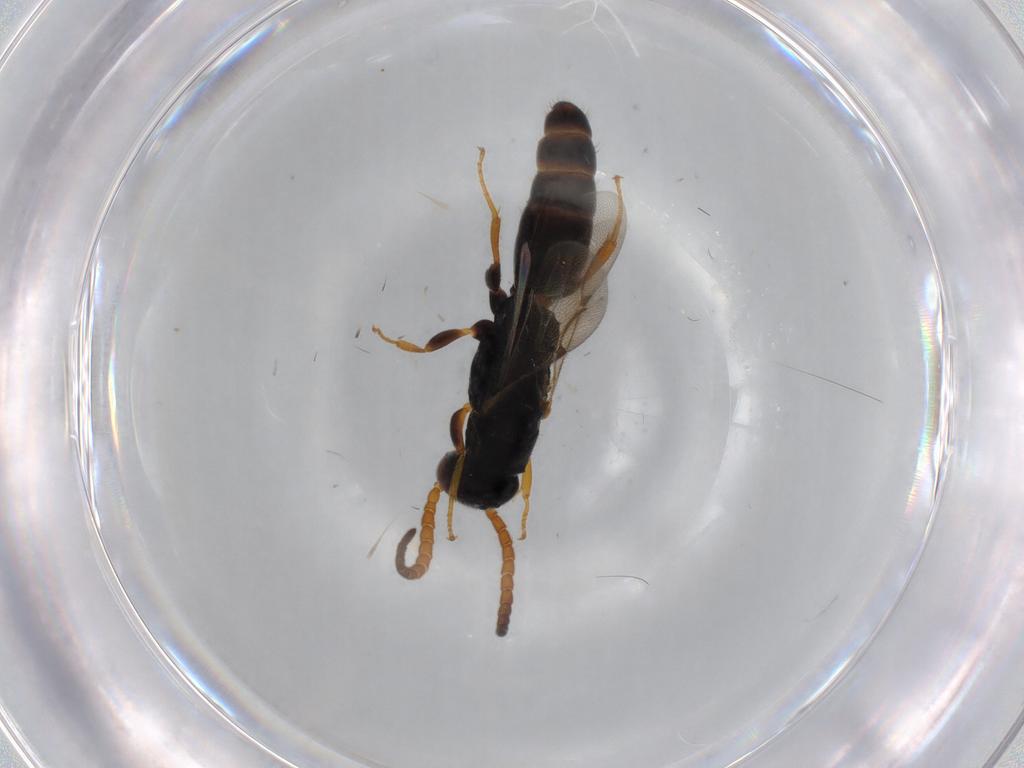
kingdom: Animalia
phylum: Arthropoda
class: Insecta
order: Hymenoptera
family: Bethylidae
